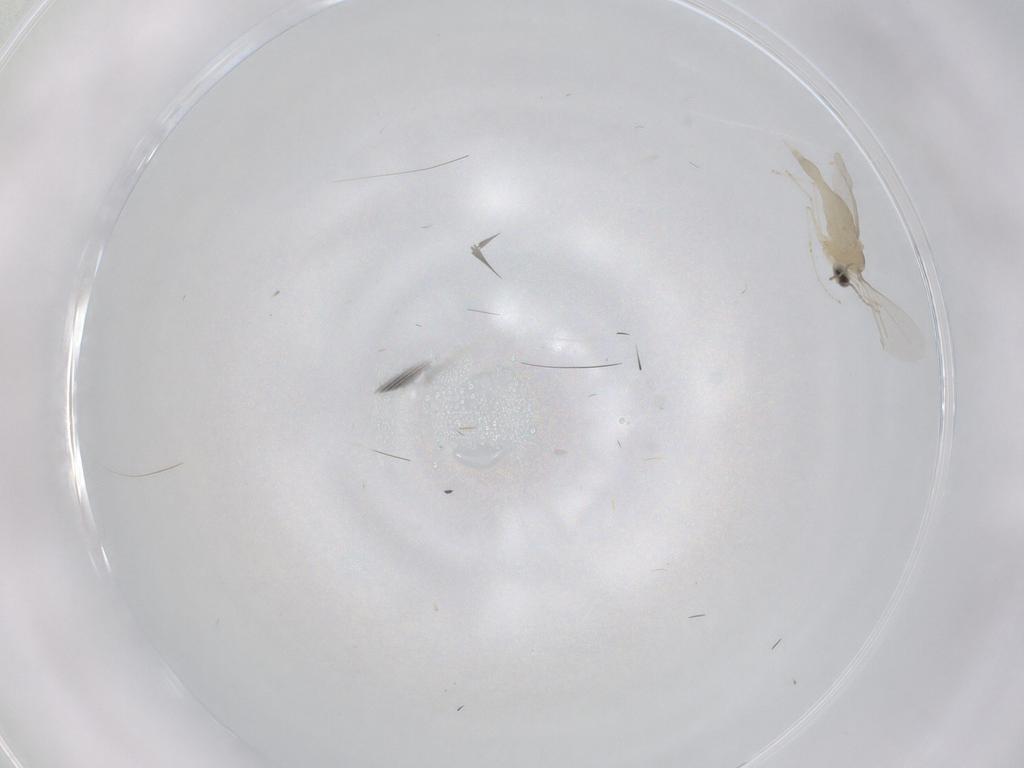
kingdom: Animalia
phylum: Arthropoda
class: Insecta
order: Diptera
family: Cecidomyiidae
